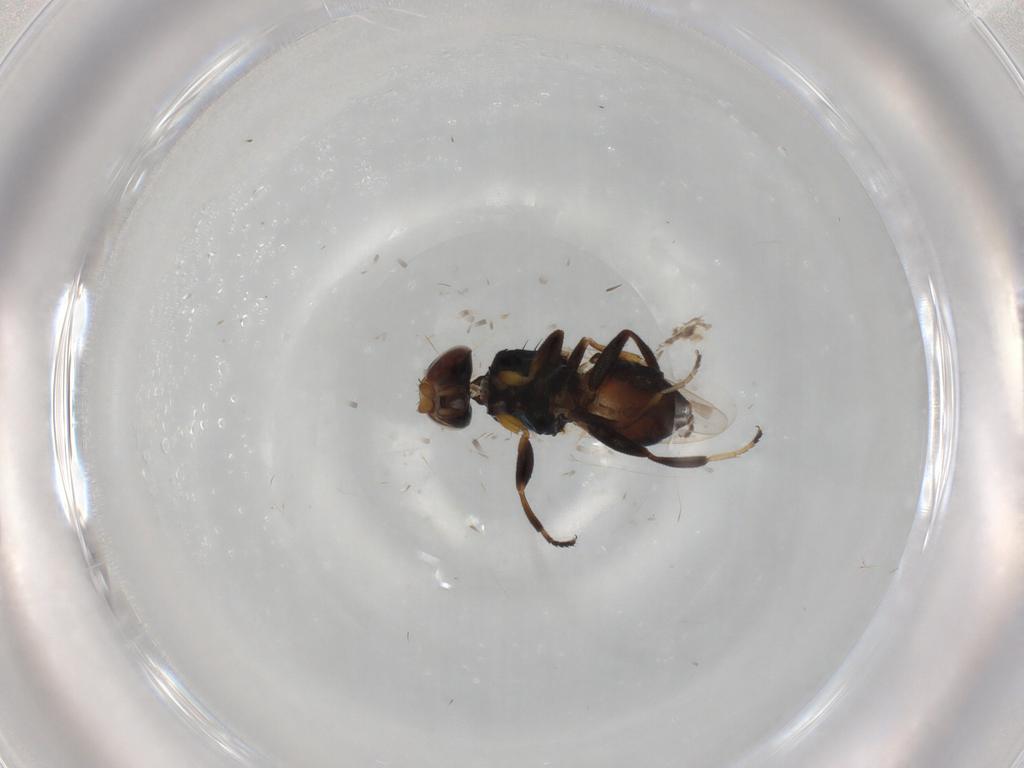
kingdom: Animalia
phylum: Arthropoda
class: Insecta
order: Diptera
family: Chloropidae
